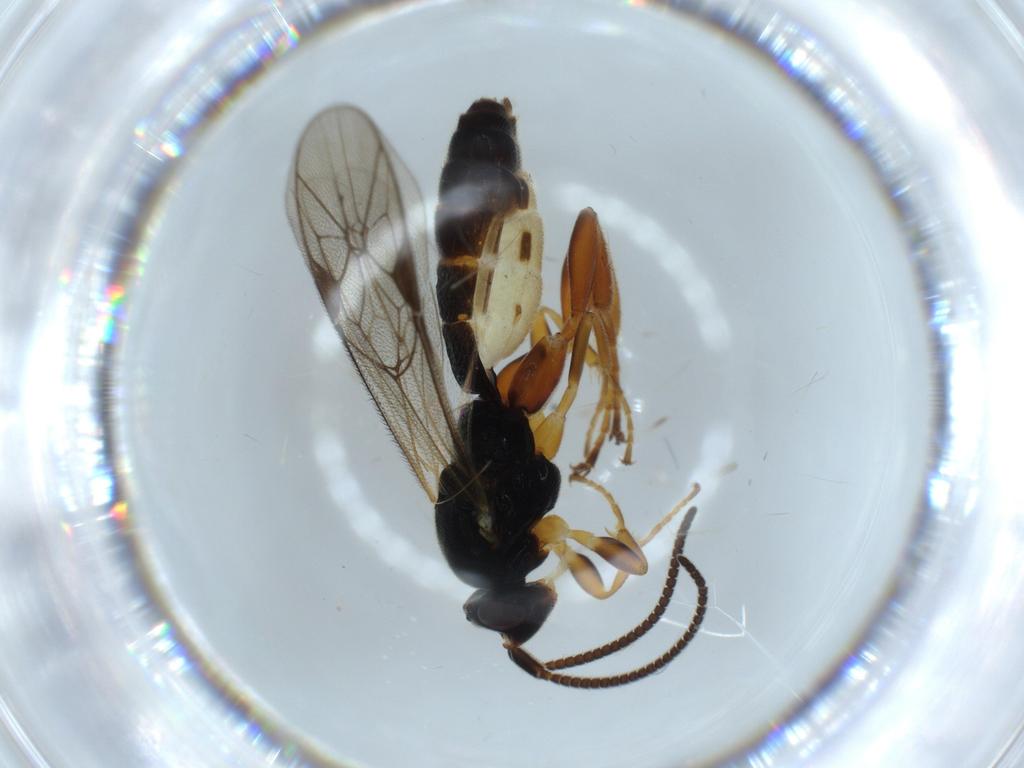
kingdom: Animalia
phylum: Arthropoda
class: Insecta
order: Hymenoptera
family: Ichneumonidae
